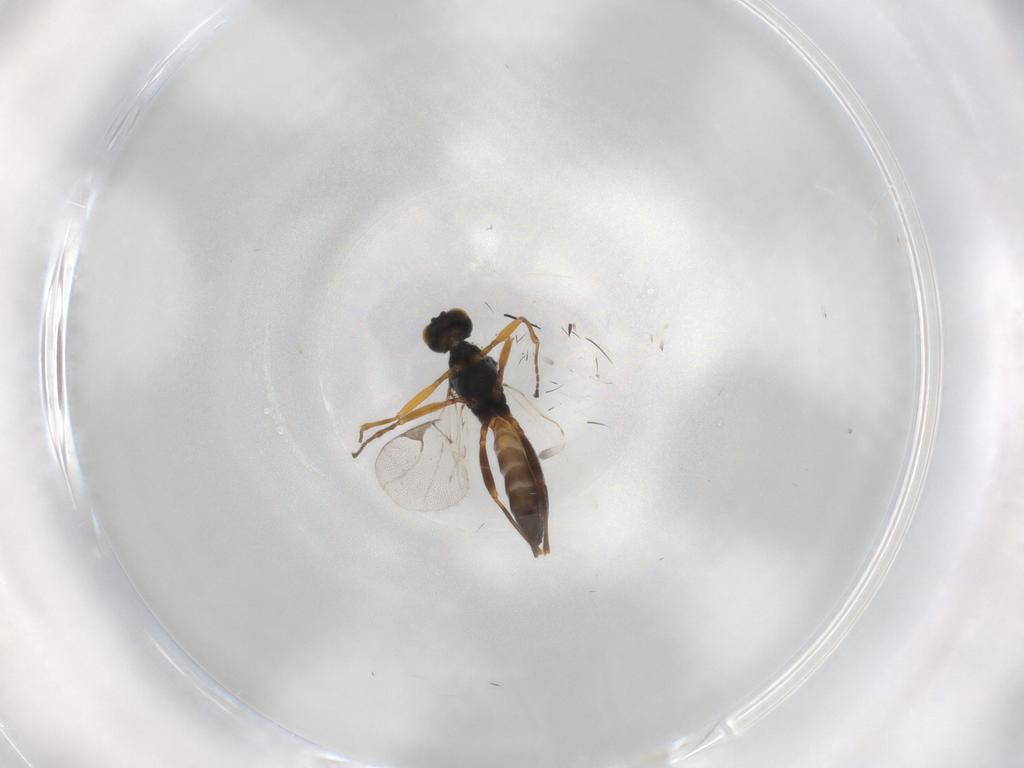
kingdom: Animalia
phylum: Arthropoda
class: Insecta
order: Hymenoptera
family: Braconidae
